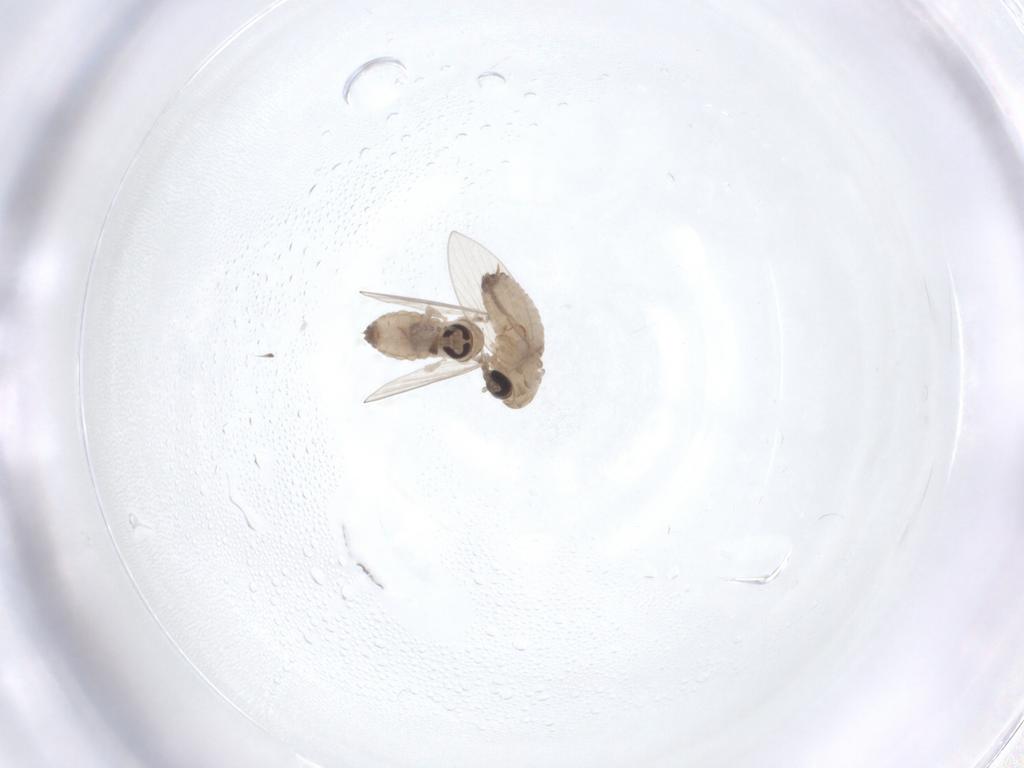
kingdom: Animalia
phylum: Arthropoda
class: Insecta
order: Diptera
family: Psychodidae
